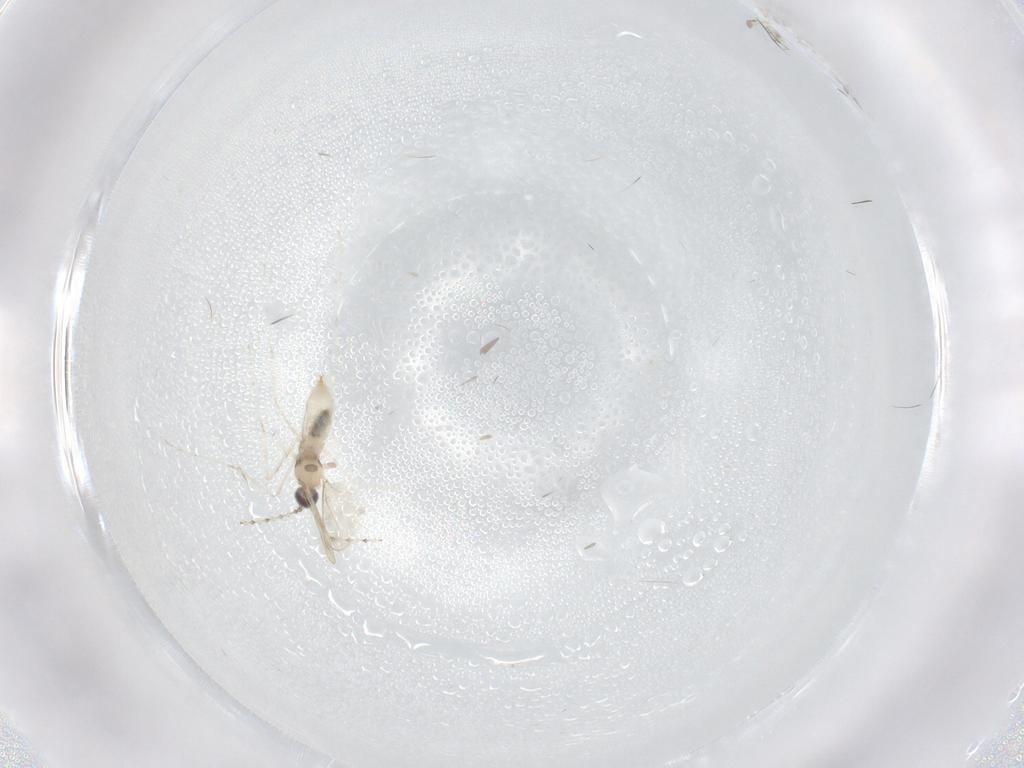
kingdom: Animalia
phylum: Arthropoda
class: Insecta
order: Diptera
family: Cecidomyiidae
